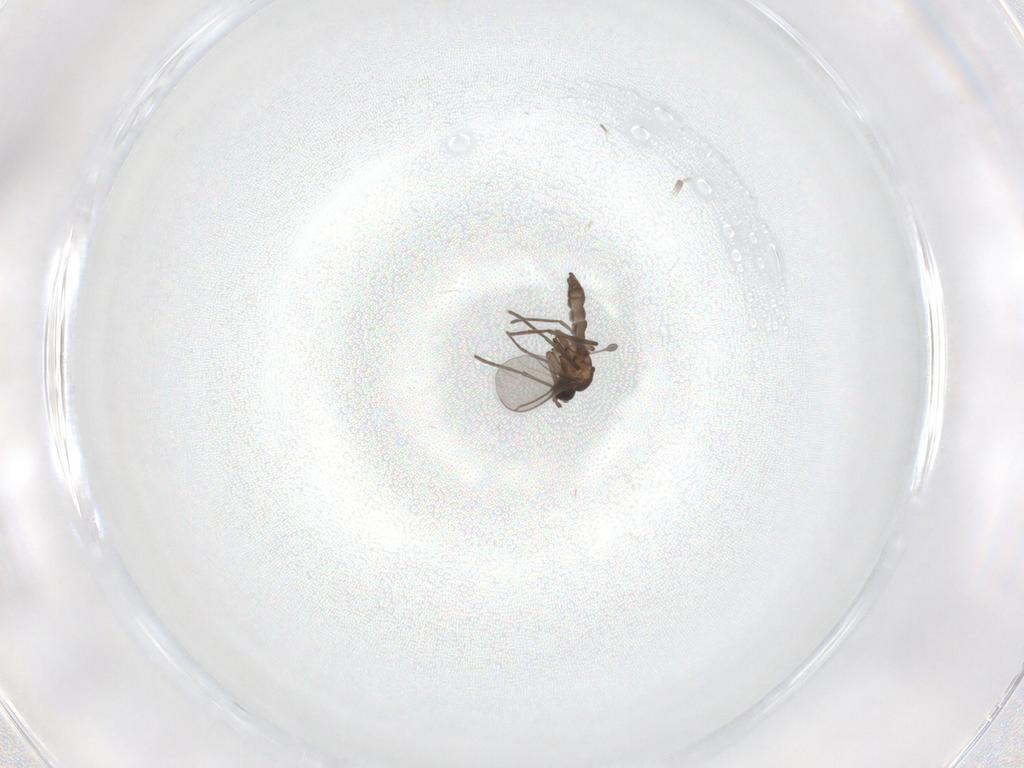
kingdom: Animalia
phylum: Arthropoda
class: Insecta
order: Diptera
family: Sciaridae
